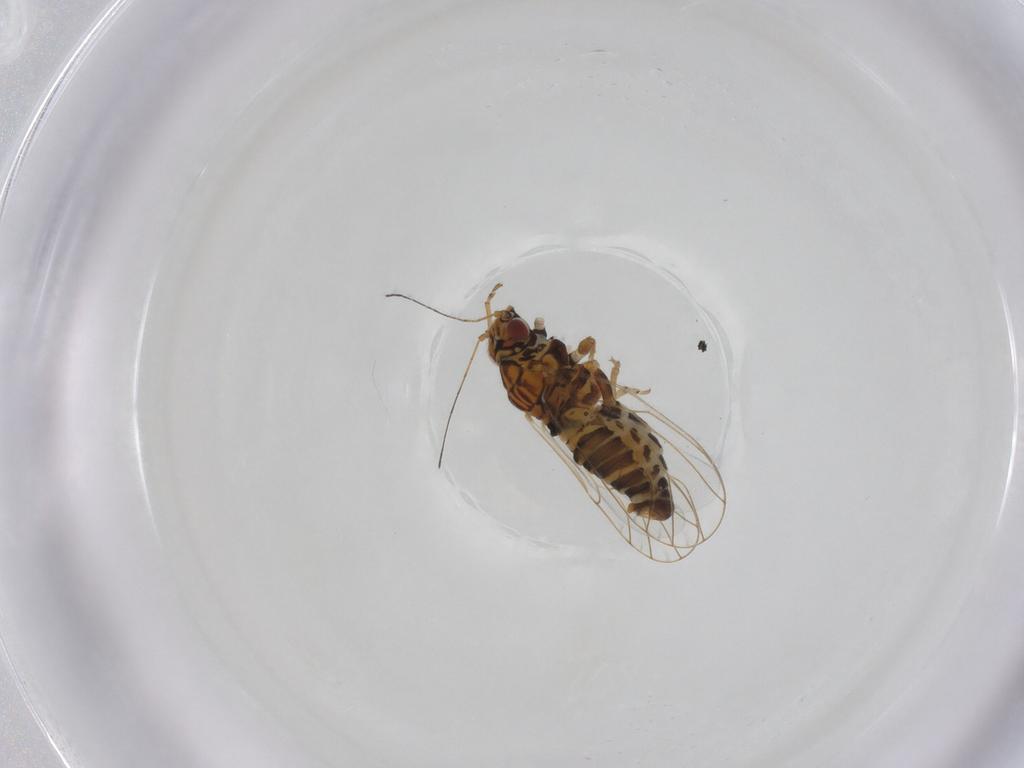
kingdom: Animalia
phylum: Arthropoda
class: Insecta
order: Hemiptera
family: Psylloidea_incertae_sedis
